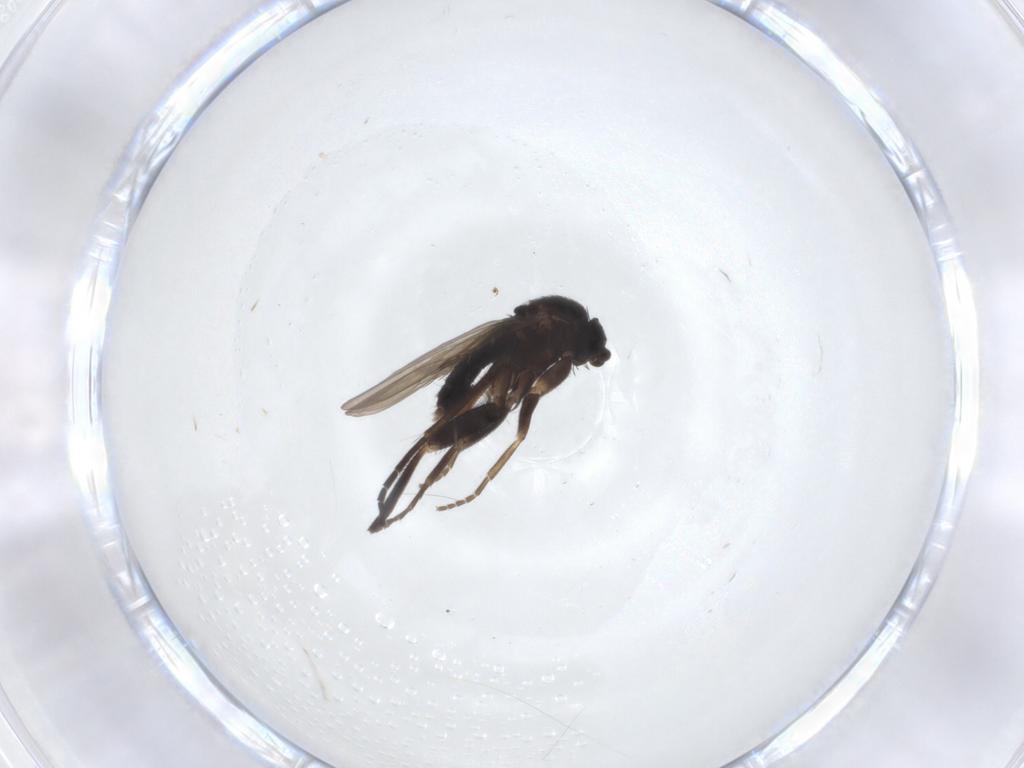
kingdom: Animalia
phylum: Arthropoda
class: Insecta
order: Diptera
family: Phoridae
